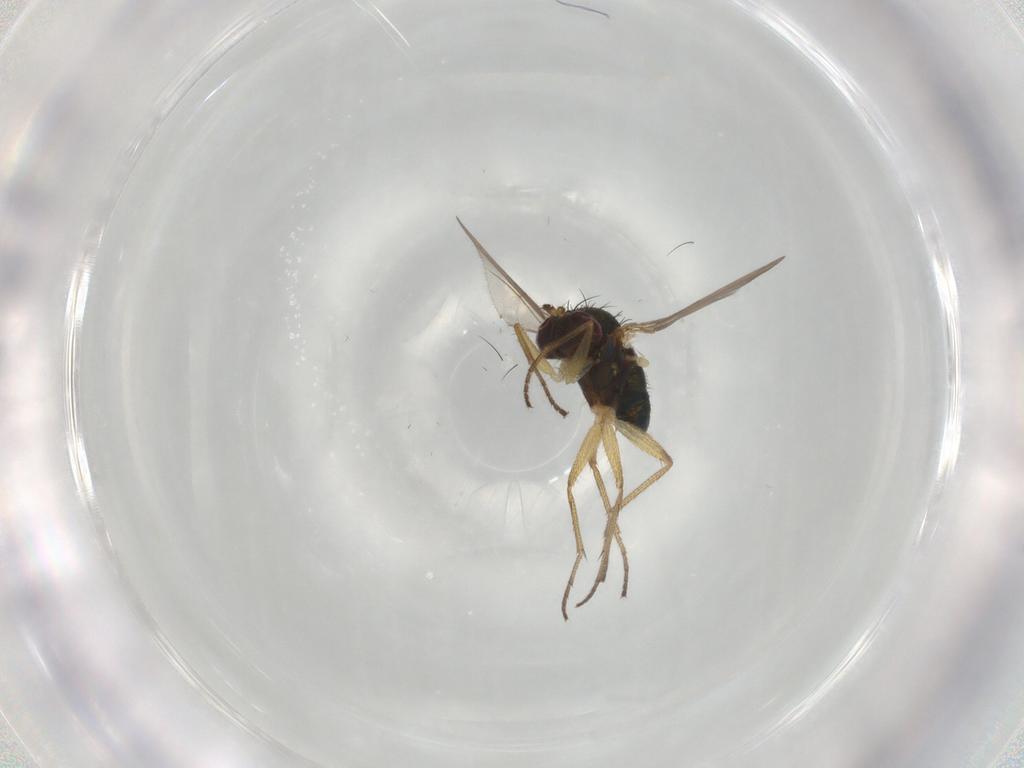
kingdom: Animalia
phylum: Arthropoda
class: Insecta
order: Diptera
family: Dolichopodidae
